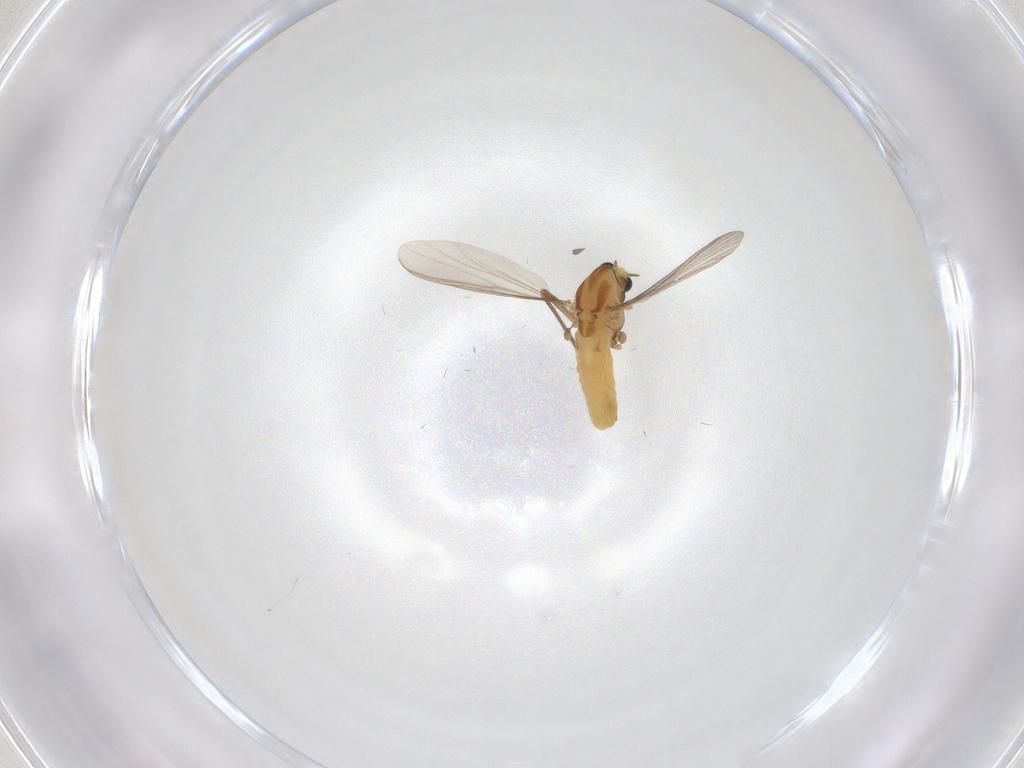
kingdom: Animalia
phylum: Arthropoda
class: Insecta
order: Diptera
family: Chironomidae
